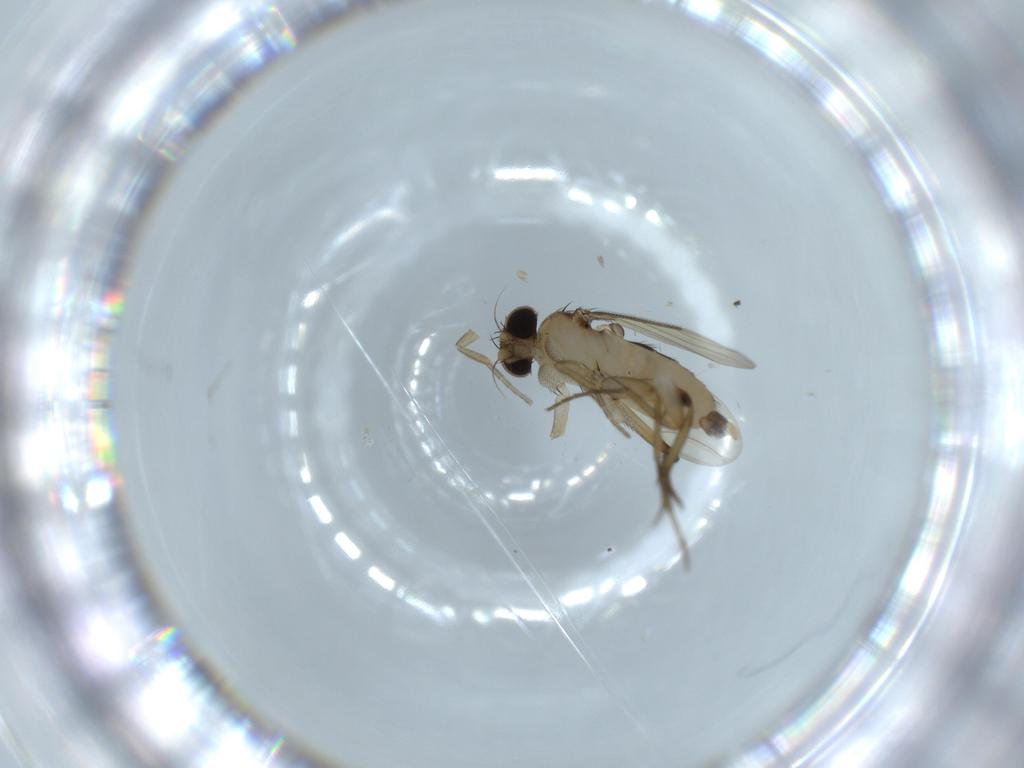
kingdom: Animalia
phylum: Arthropoda
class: Insecta
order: Diptera
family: Phoridae
